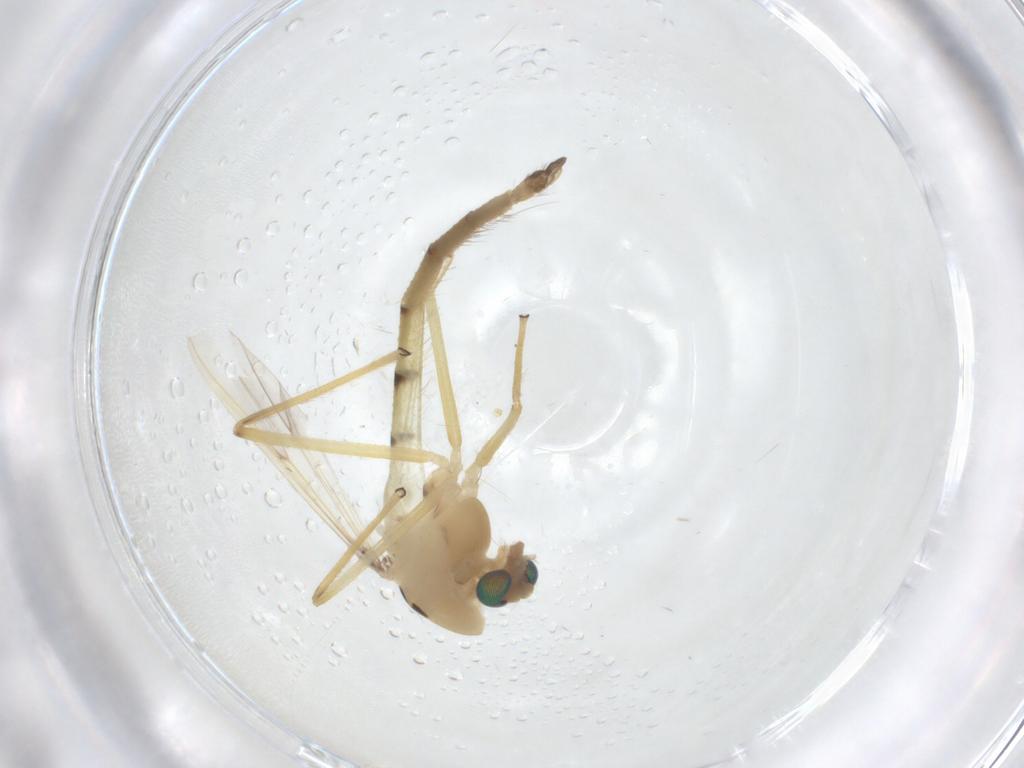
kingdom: Animalia
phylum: Arthropoda
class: Insecta
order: Diptera
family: Chironomidae
